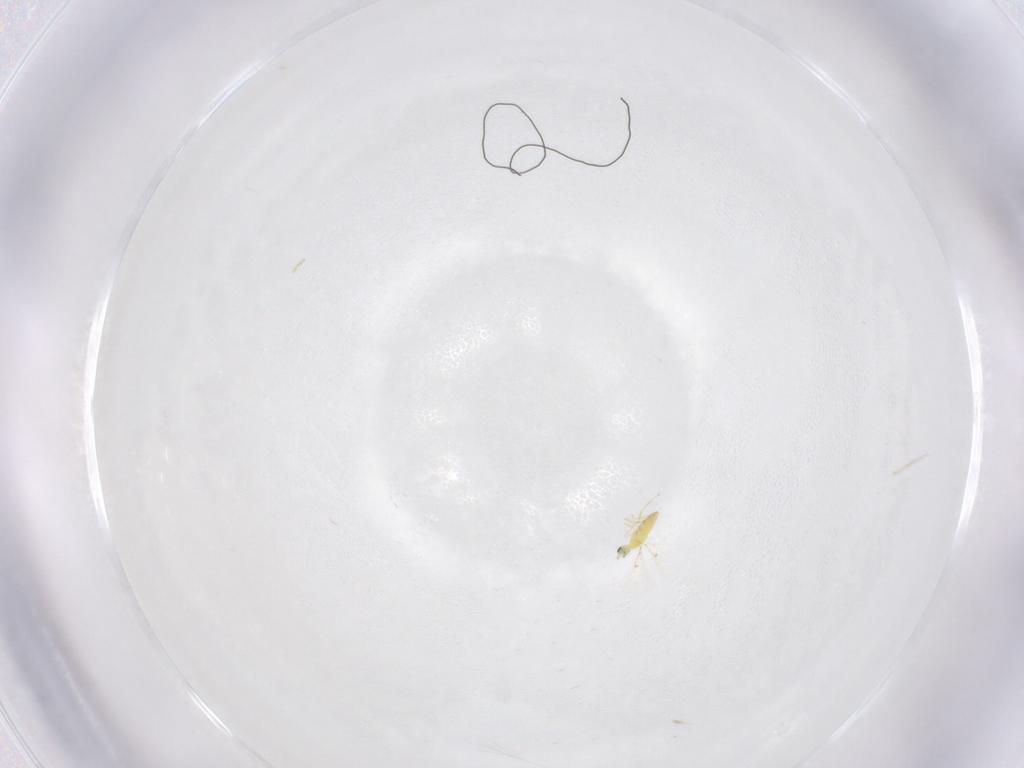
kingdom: Animalia
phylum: Arthropoda
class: Insecta
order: Hymenoptera
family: Trichogrammatidae
